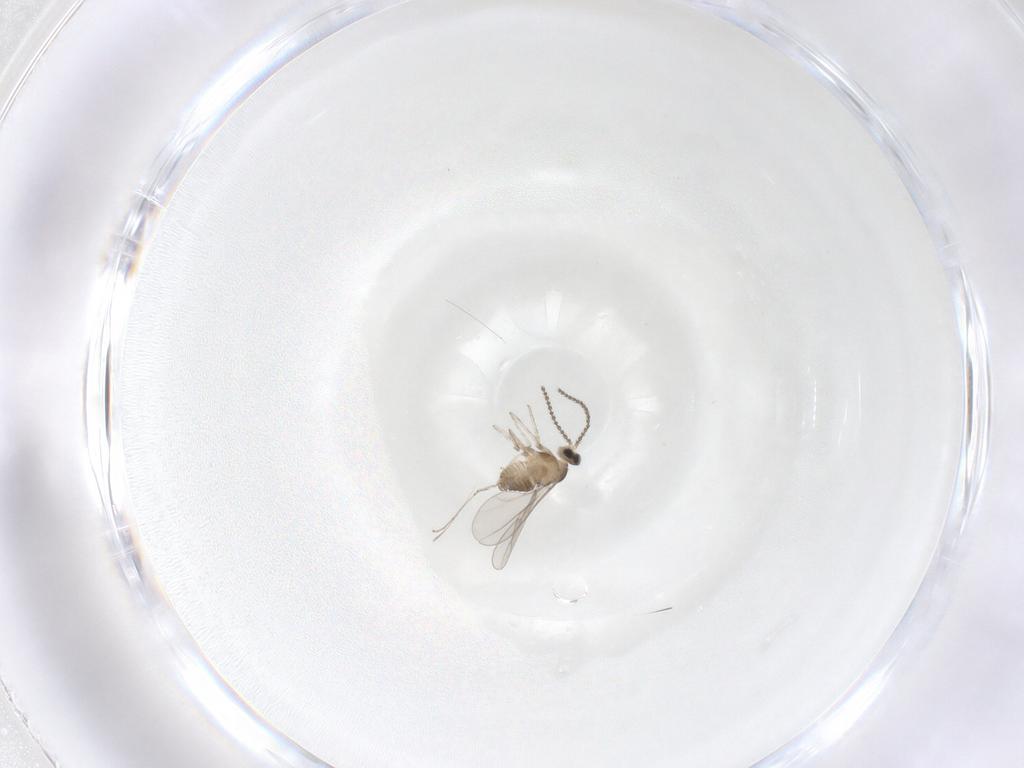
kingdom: Animalia
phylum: Arthropoda
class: Insecta
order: Diptera
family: Cecidomyiidae
